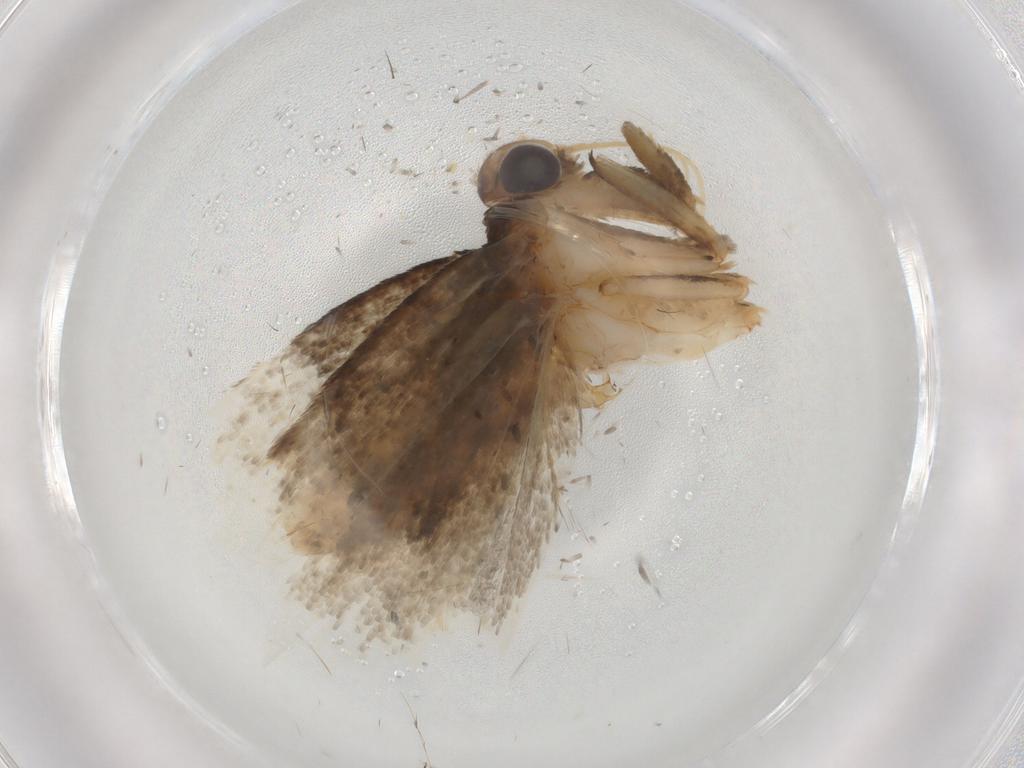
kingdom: Animalia
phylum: Arthropoda
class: Insecta
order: Lepidoptera
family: Oecophoridae
